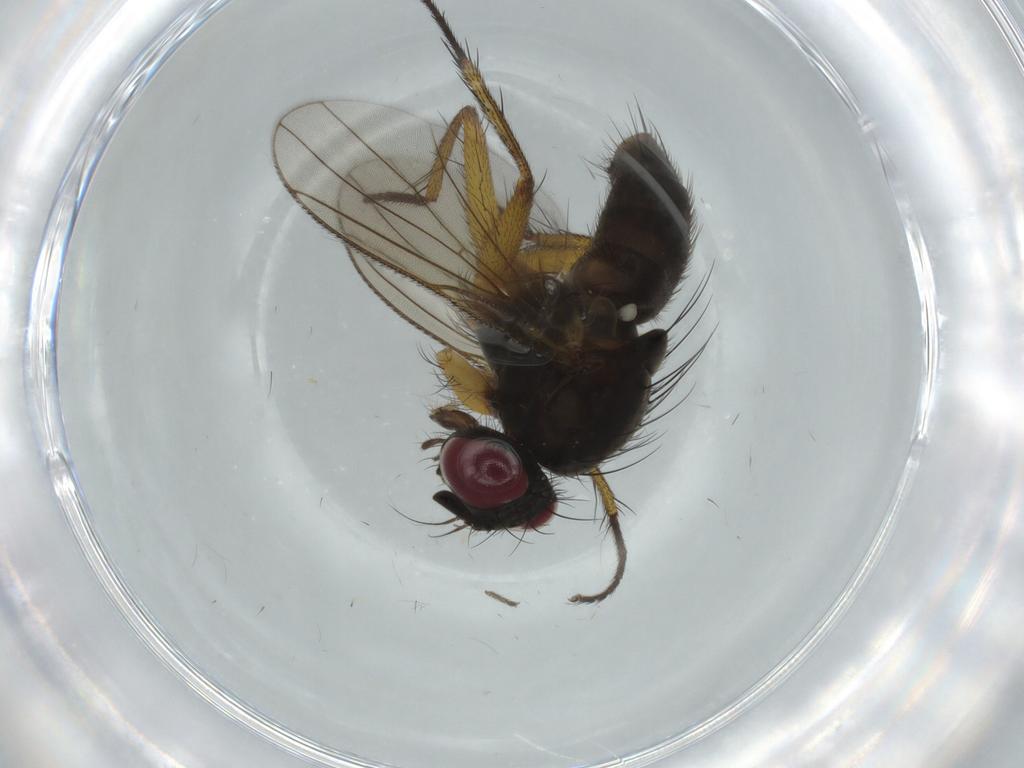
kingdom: Animalia
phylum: Arthropoda
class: Insecta
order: Diptera
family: Muscidae
